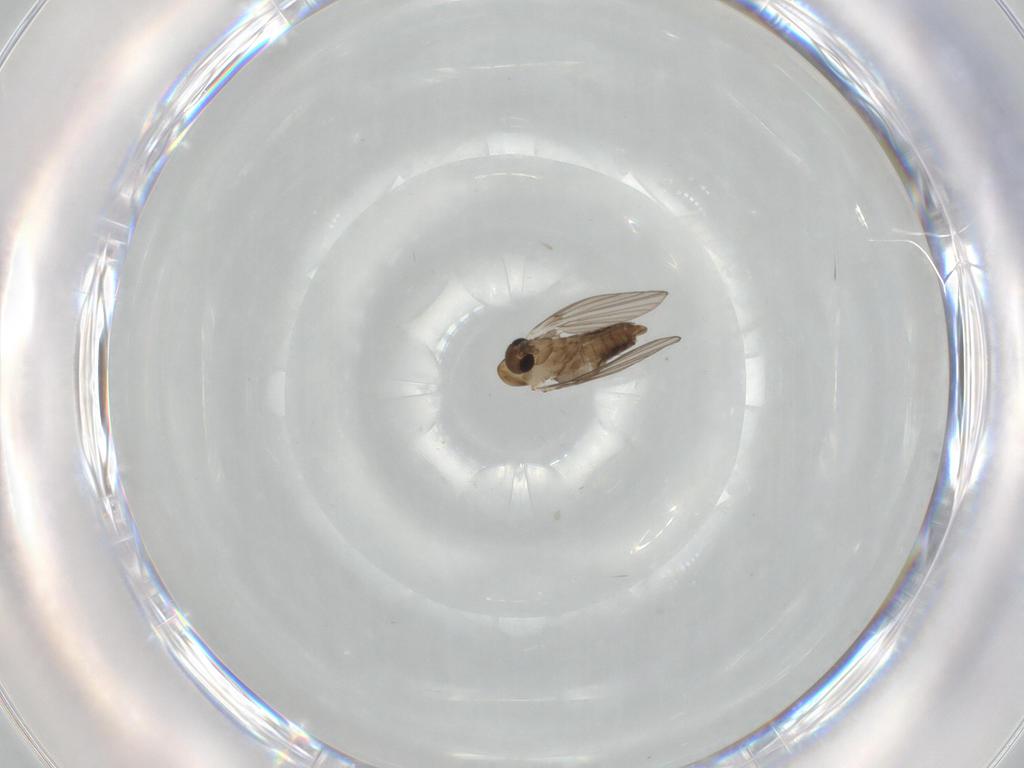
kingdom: Animalia
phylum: Arthropoda
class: Insecta
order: Diptera
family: Psychodidae
